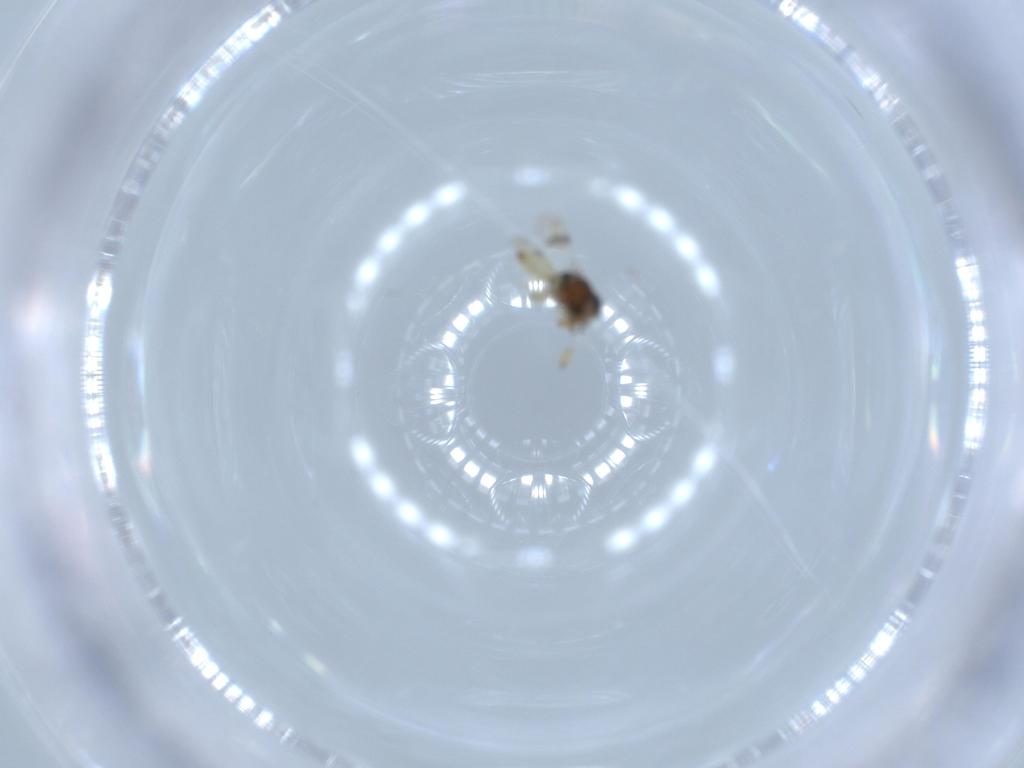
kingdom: Animalia
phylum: Arthropoda
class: Insecta
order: Hymenoptera
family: Scelionidae
